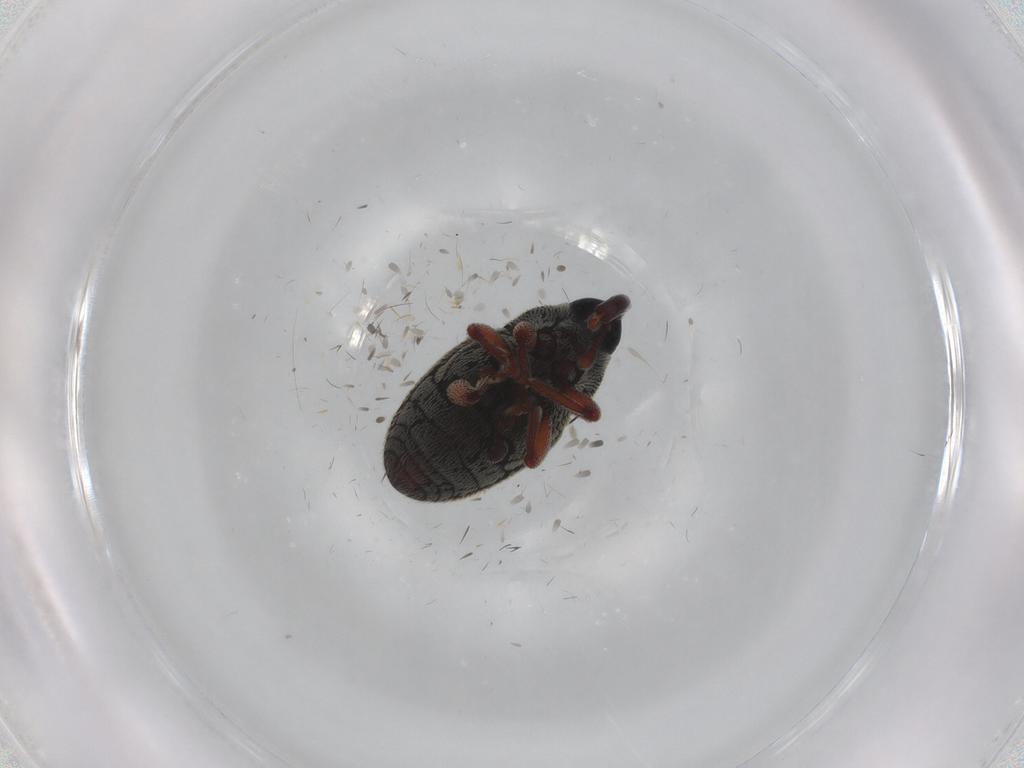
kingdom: Animalia
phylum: Arthropoda
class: Insecta
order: Coleoptera
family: Curculionidae
